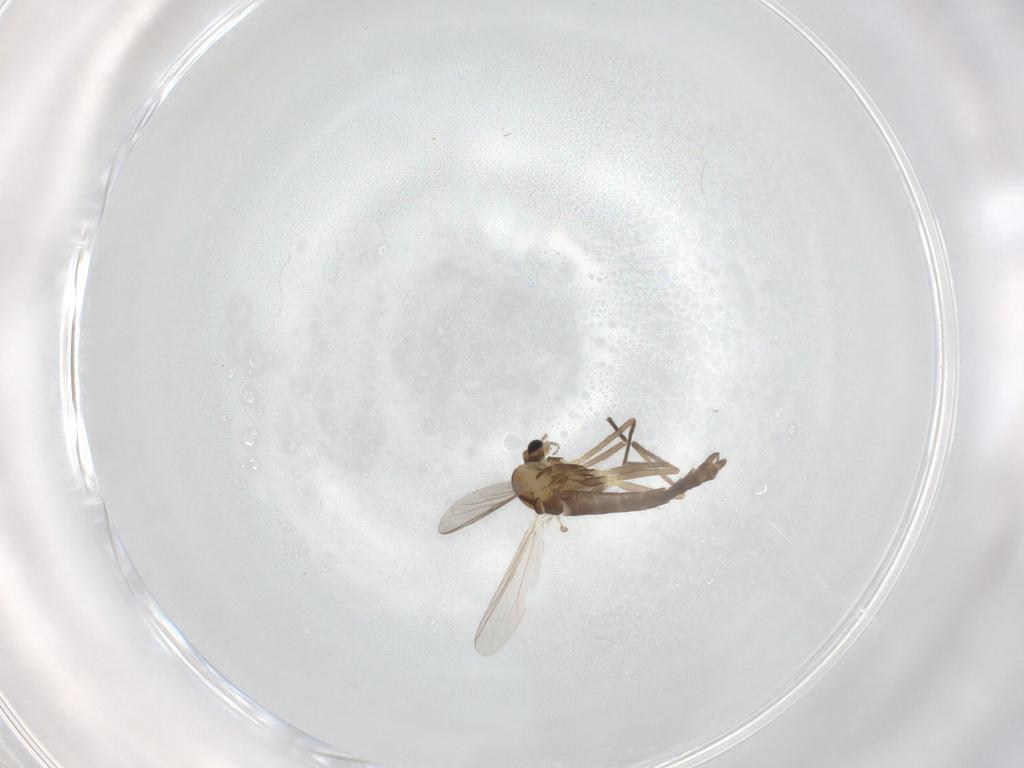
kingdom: Animalia
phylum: Arthropoda
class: Insecta
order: Diptera
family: Chironomidae
